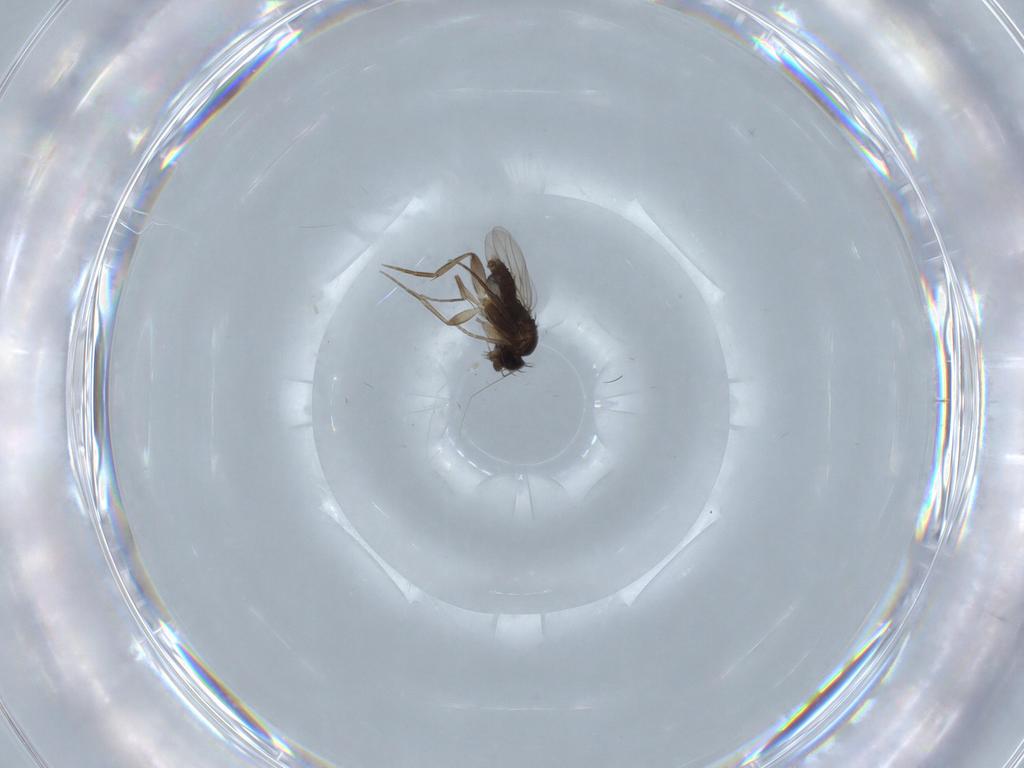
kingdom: Animalia
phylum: Arthropoda
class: Insecta
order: Diptera
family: Phoridae
